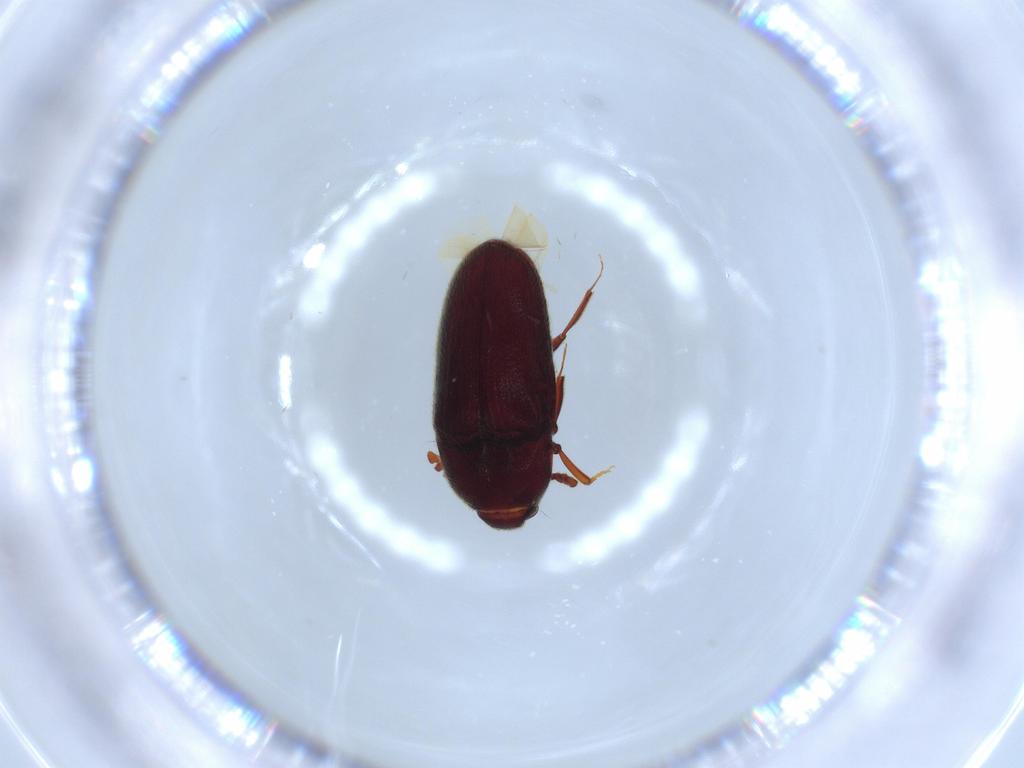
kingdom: Animalia
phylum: Arthropoda
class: Insecta
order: Coleoptera
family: Throscidae
